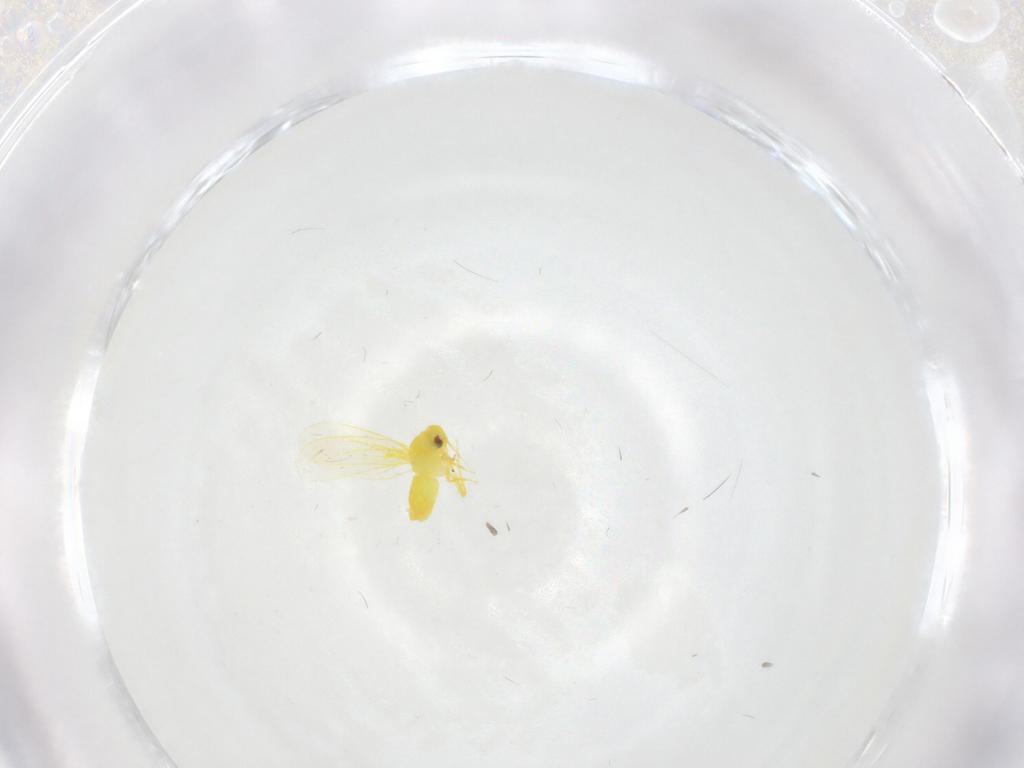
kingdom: Animalia
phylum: Arthropoda
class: Insecta
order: Hemiptera
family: Aleyrodidae
